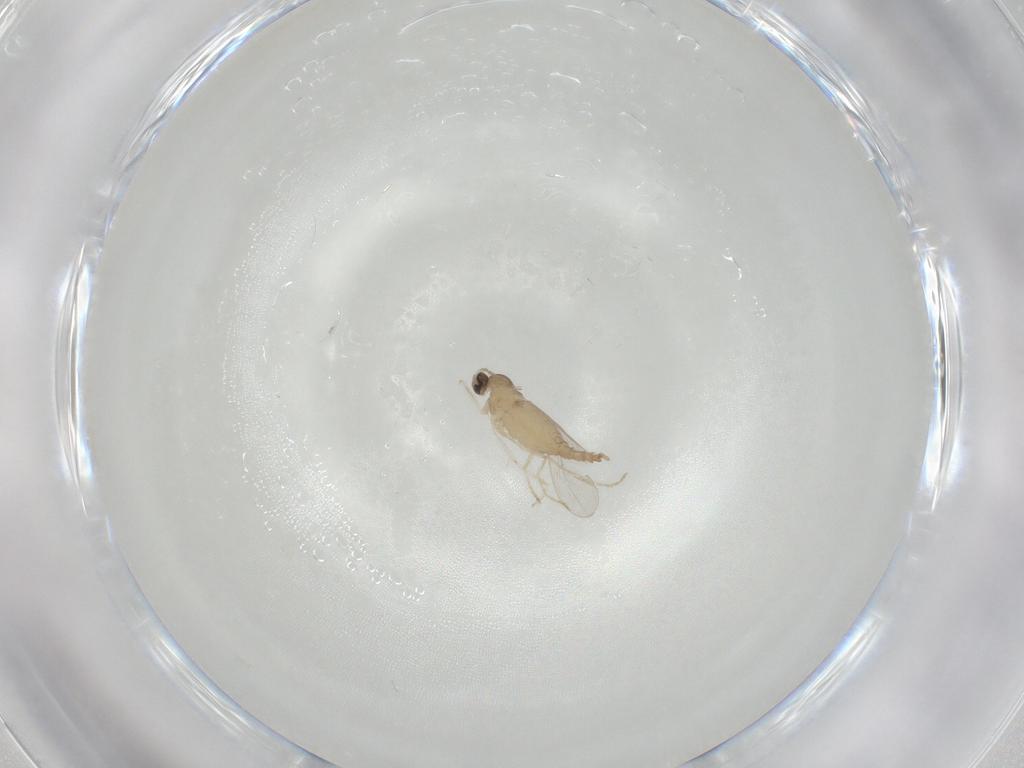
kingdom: Animalia
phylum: Arthropoda
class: Insecta
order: Diptera
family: Cecidomyiidae
